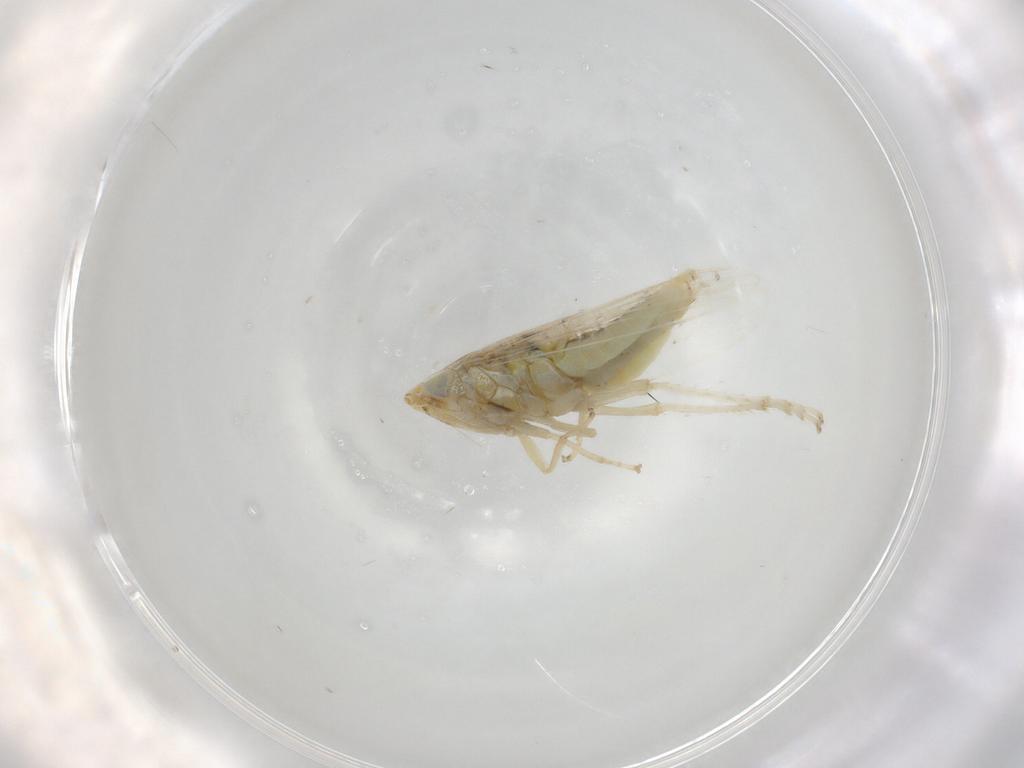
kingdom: Animalia
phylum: Arthropoda
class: Insecta
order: Hemiptera
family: Cicadellidae
